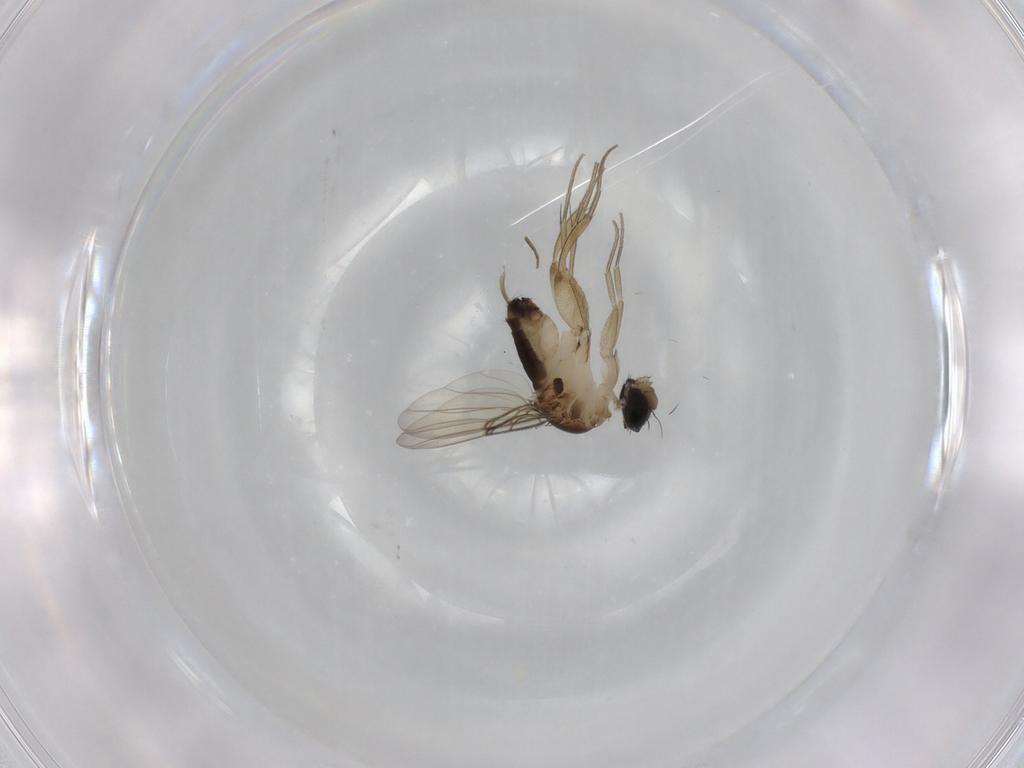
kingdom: Animalia
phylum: Arthropoda
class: Insecta
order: Diptera
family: Phoridae
